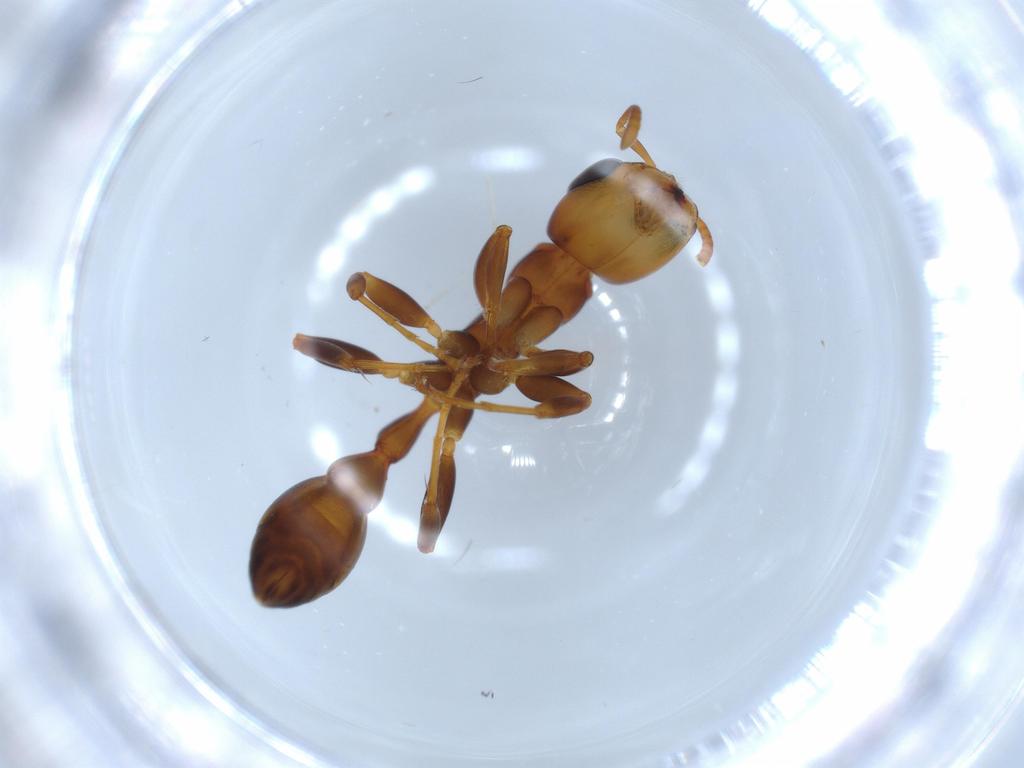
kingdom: Animalia
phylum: Arthropoda
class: Insecta
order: Hymenoptera
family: Formicidae
